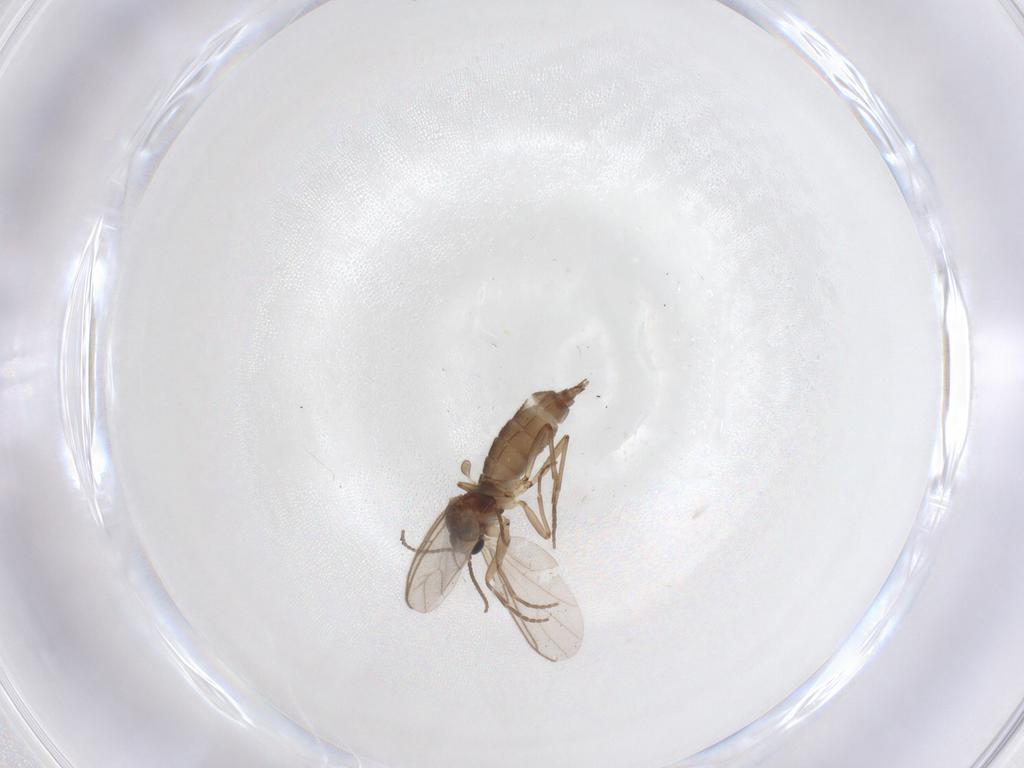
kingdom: Animalia
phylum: Arthropoda
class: Insecta
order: Diptera
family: Sciaridae
